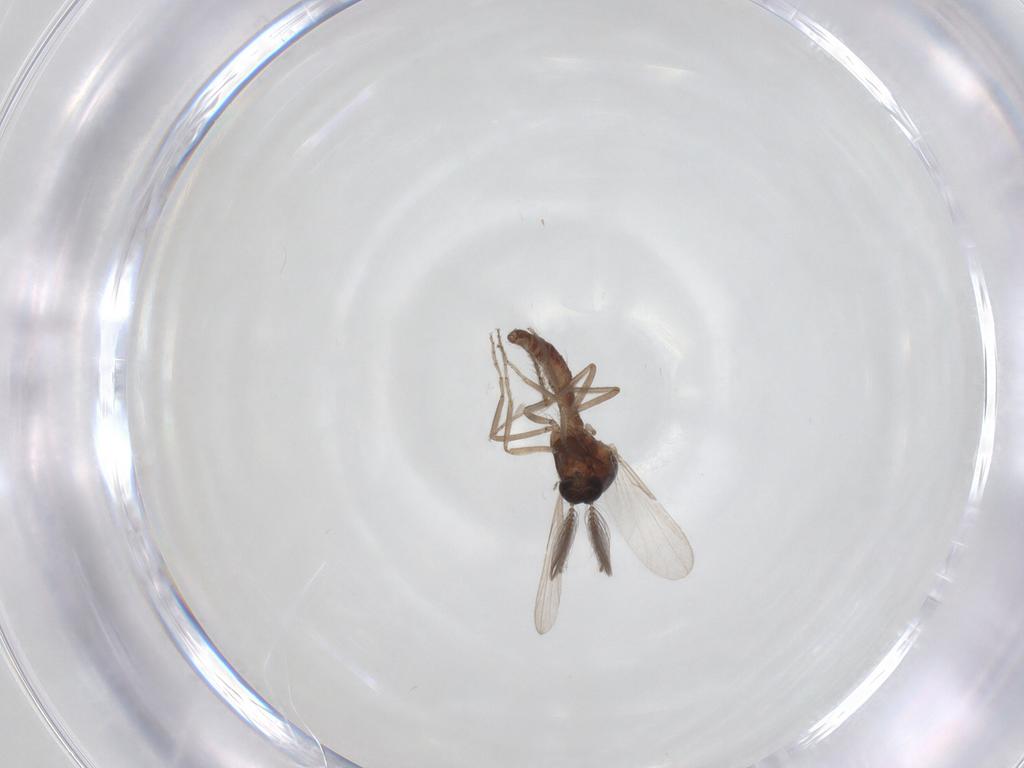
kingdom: Animalia
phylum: Arthropoda
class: Insecta
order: Diptera
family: Ceratopogonidae
